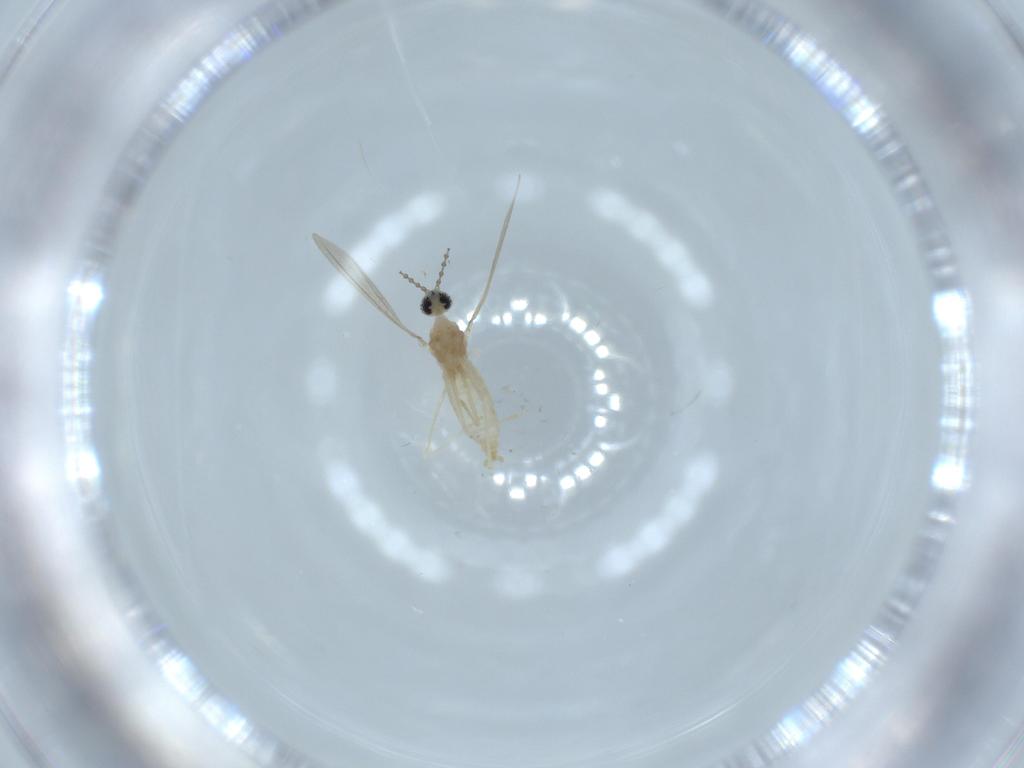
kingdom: Animalia
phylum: Arthropoda
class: Insecta
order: Diptera
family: Cecidomyiidae
